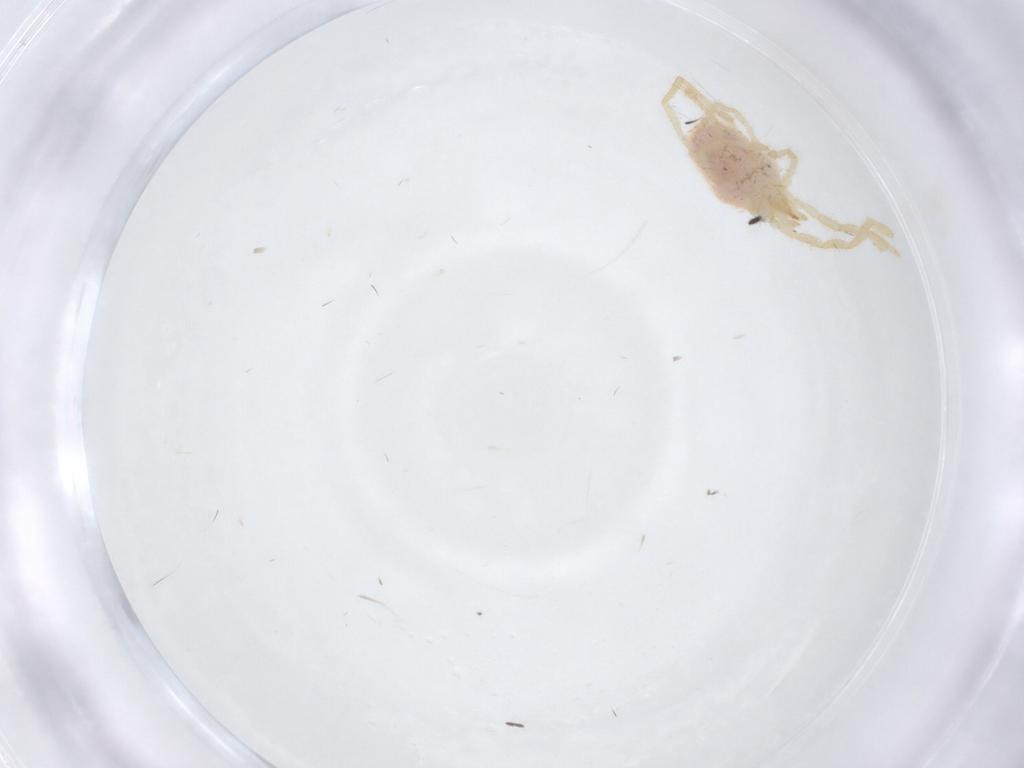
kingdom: Animalia
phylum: Arthropoda
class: Arachnida
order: Trombidiformes
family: Erythraeidae
